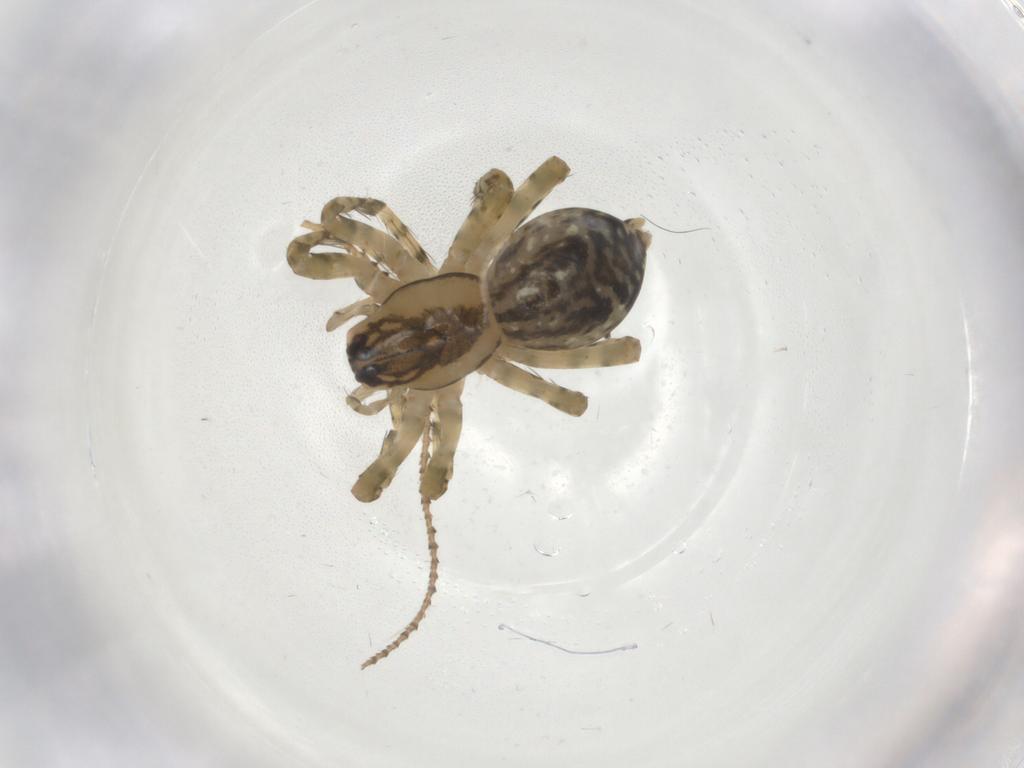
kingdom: Animalia
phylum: Arthropoda
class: Arachnida
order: Araneae
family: Amaurobiidae
